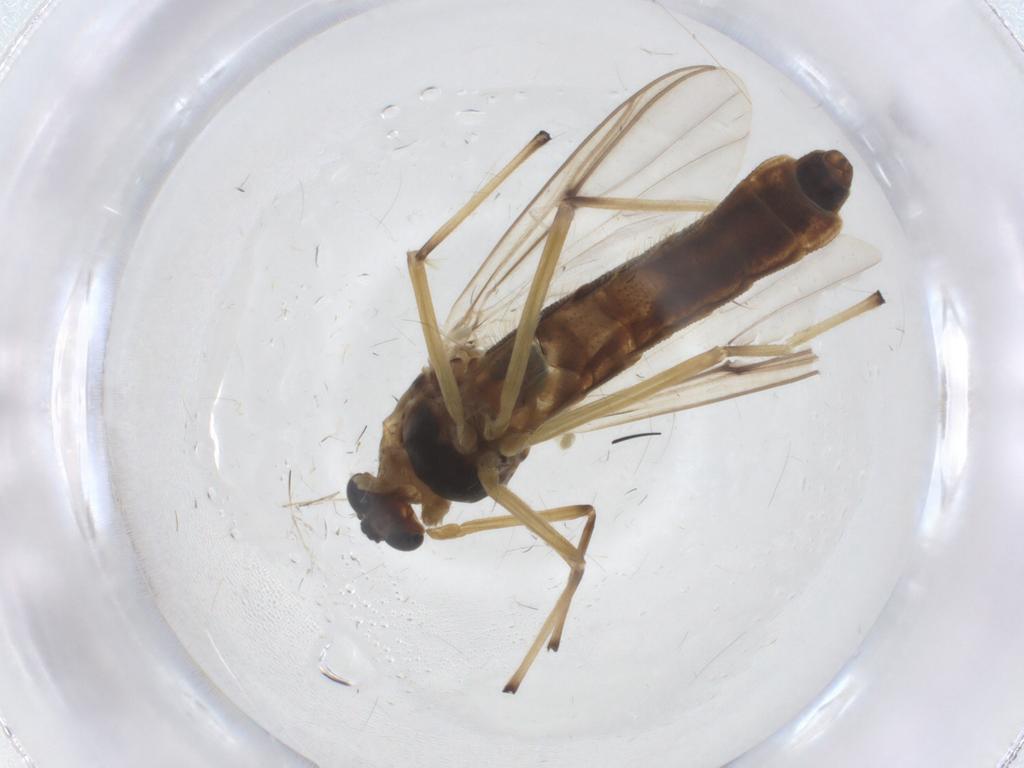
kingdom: Animalia
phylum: Arthropoda
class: Insecta
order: Diptera
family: Chironomidae
